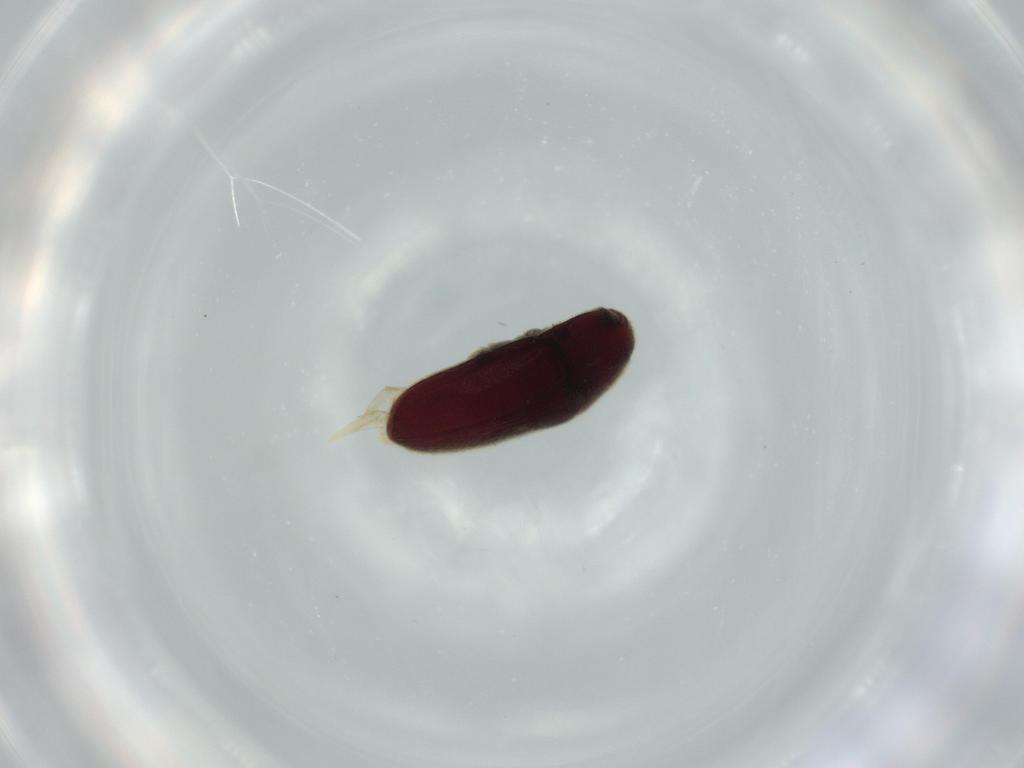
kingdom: Animalia
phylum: Arthropoda
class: Insecta
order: Coleoptera
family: Throscidae
